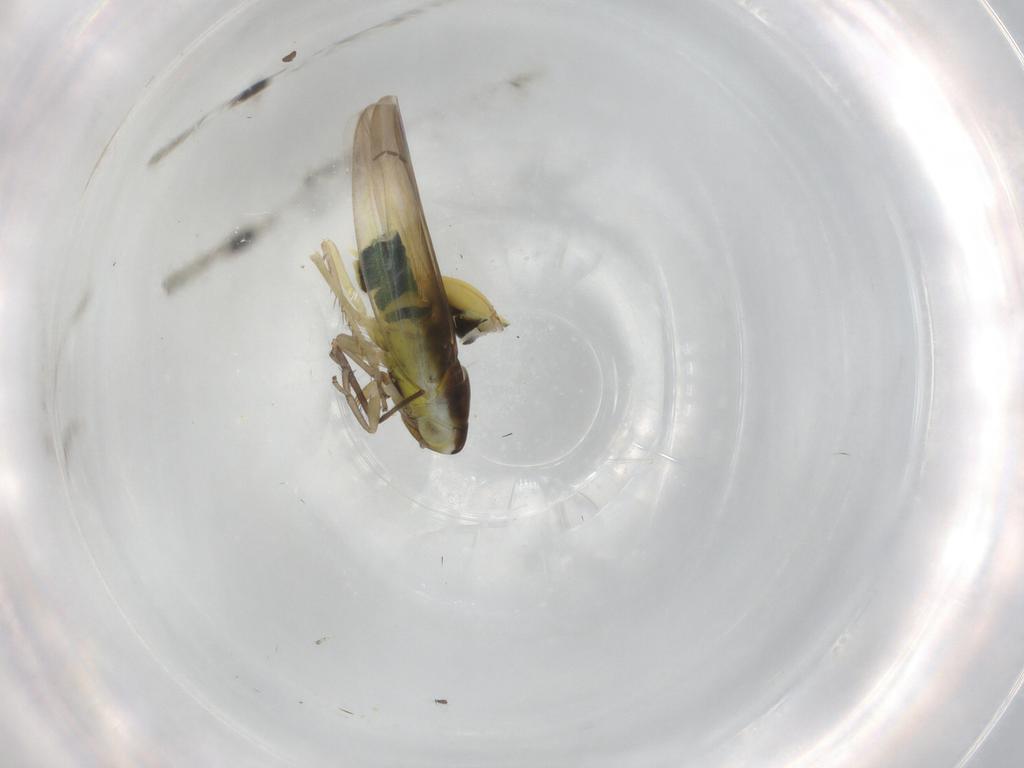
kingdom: Animalia
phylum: Arthropoda
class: Insecta
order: Hemiptera
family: Cicadellidae
